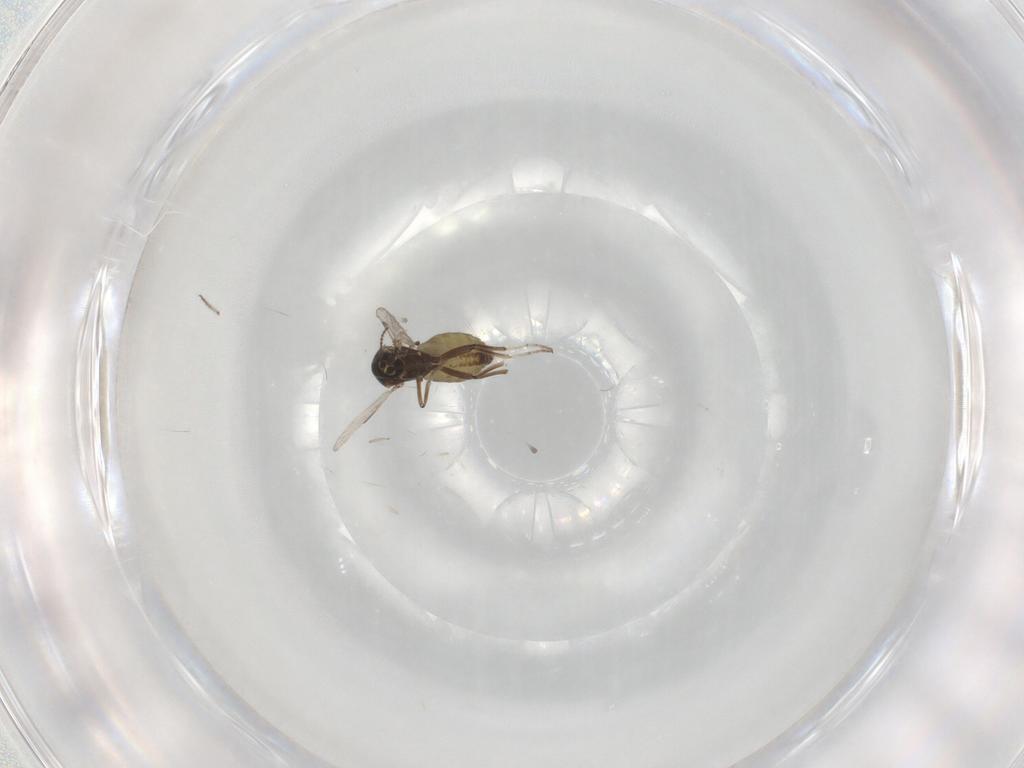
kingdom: Animalia
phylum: Arthropoda
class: Insecta
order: Diptera
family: Ceratopogonidae
